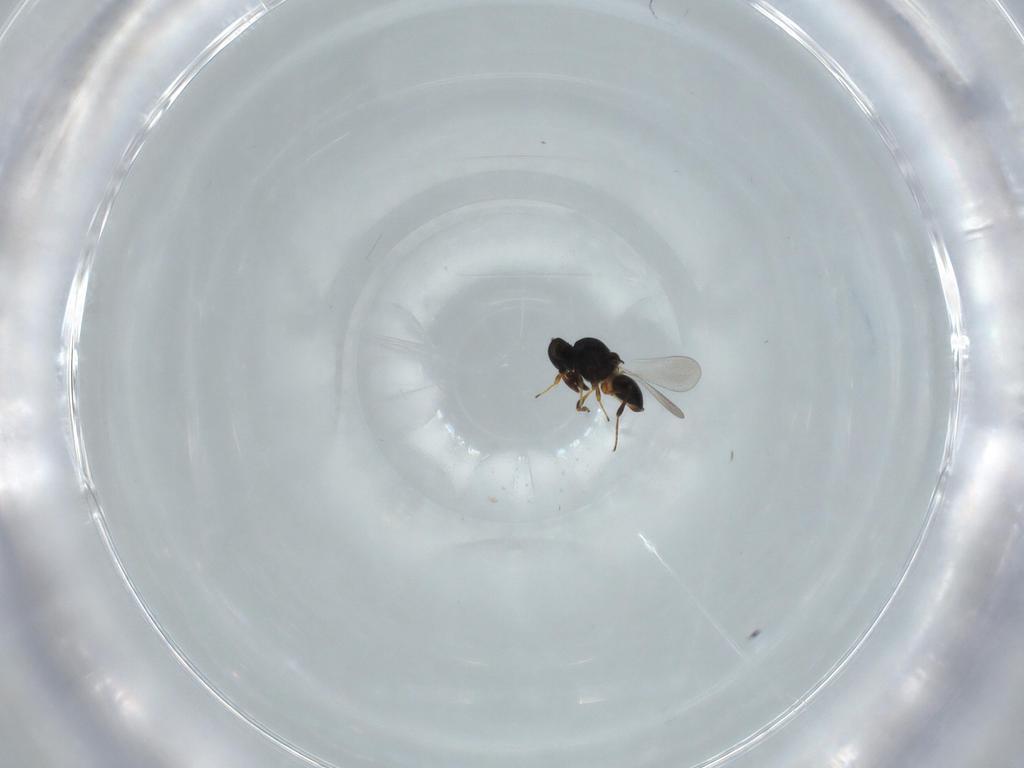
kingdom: Animalia
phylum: Arthropoda
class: Insecta
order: Hymenoptera
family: Platygastridae
